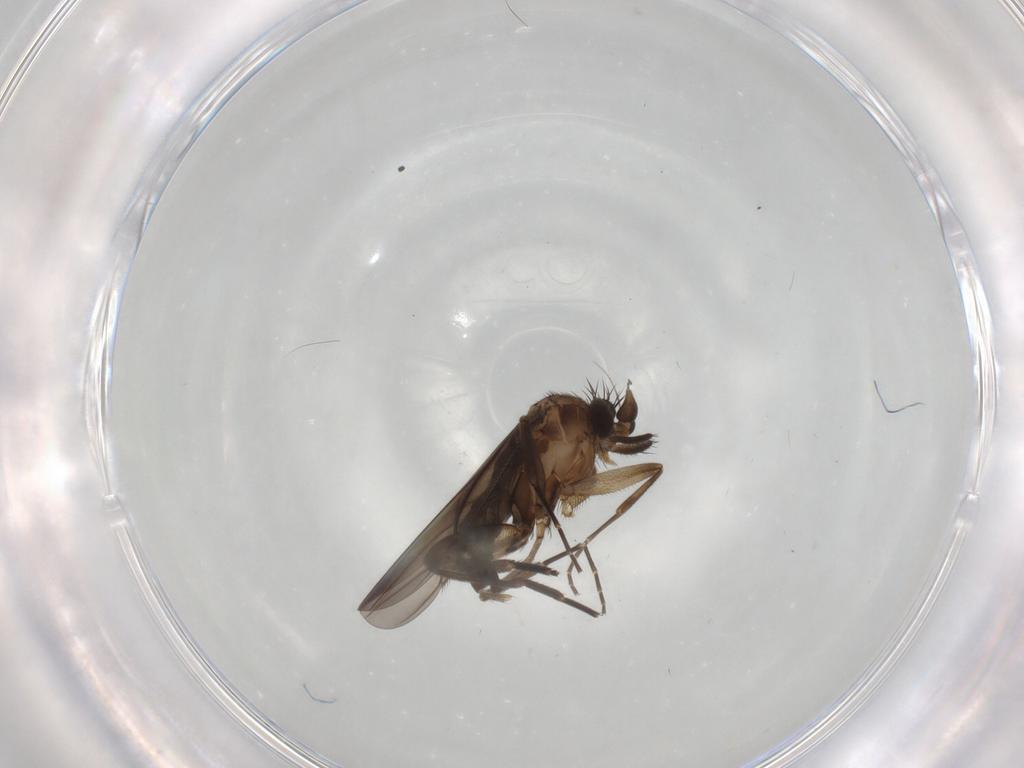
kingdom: Animalia
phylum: Arthropoda
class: Insecta
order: Diptera
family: Phoridae
